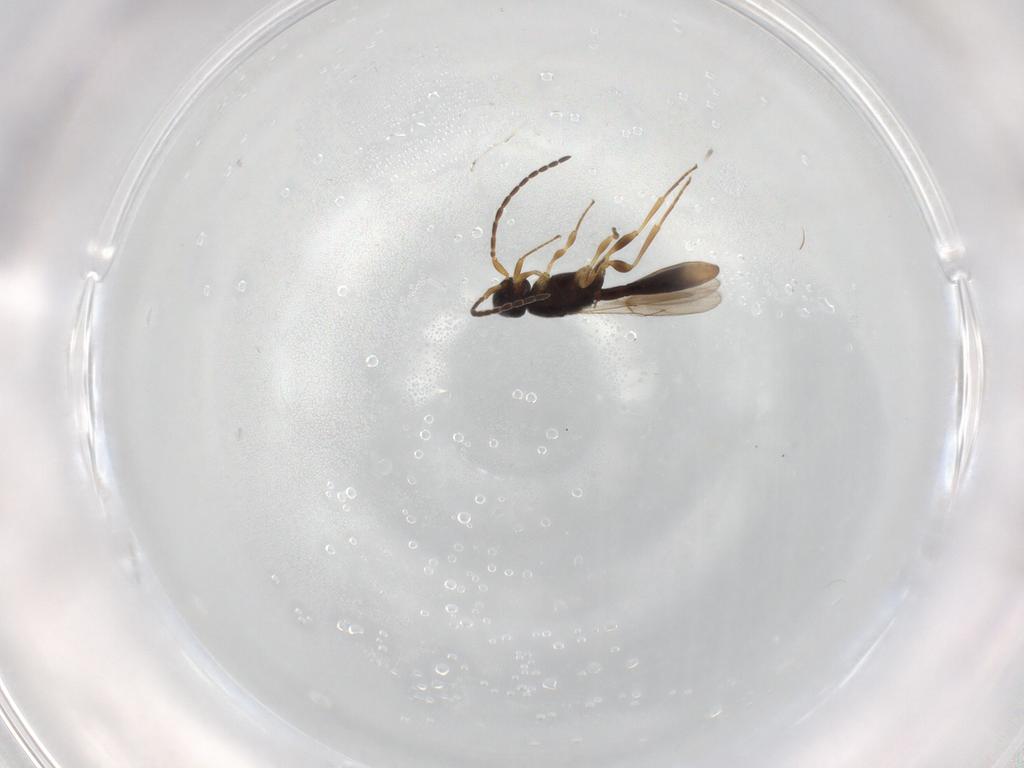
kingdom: Animalia
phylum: Arthropoda
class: Insecta
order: Hymenoptera
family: Scelionidae
